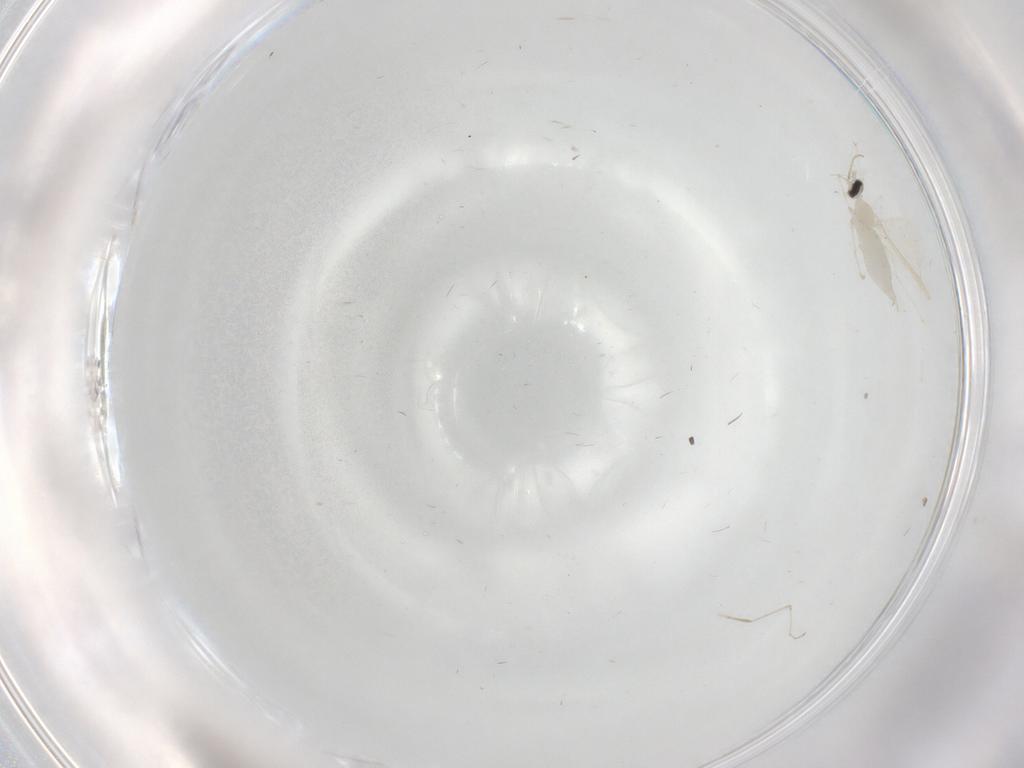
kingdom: Animalia
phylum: Arthropoda
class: Insecta
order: Diptera
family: Cecidomyiidae
